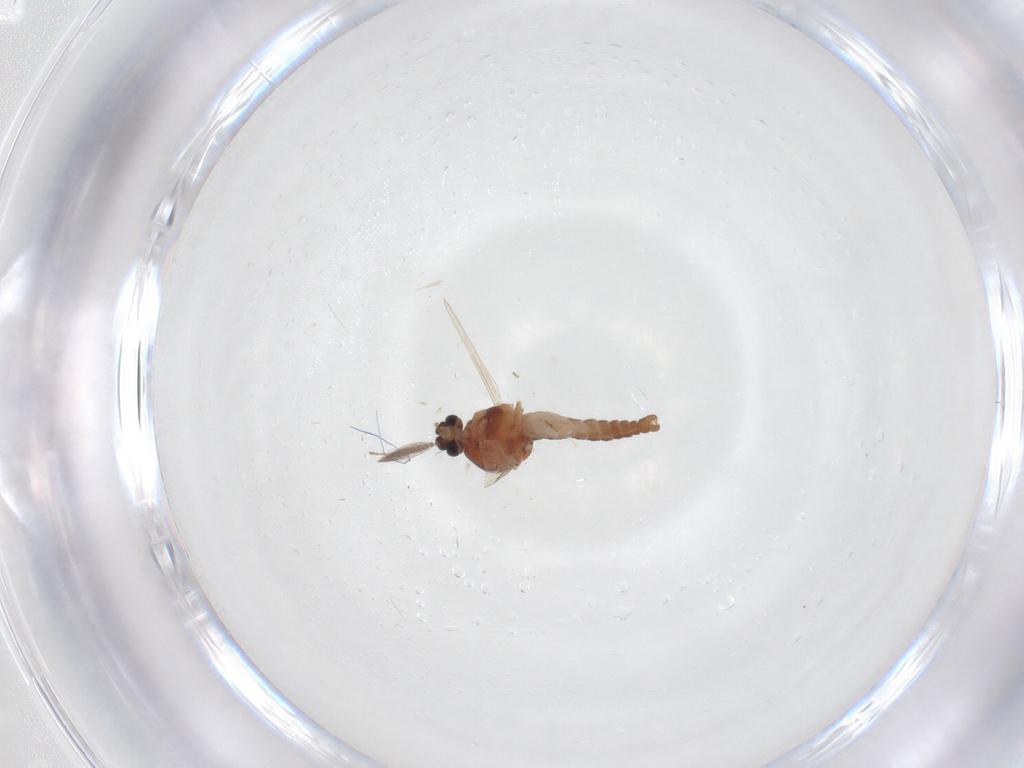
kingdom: Animalia
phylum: Arthropoda
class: Insecta
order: Diptera
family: Ceratopogonidae
